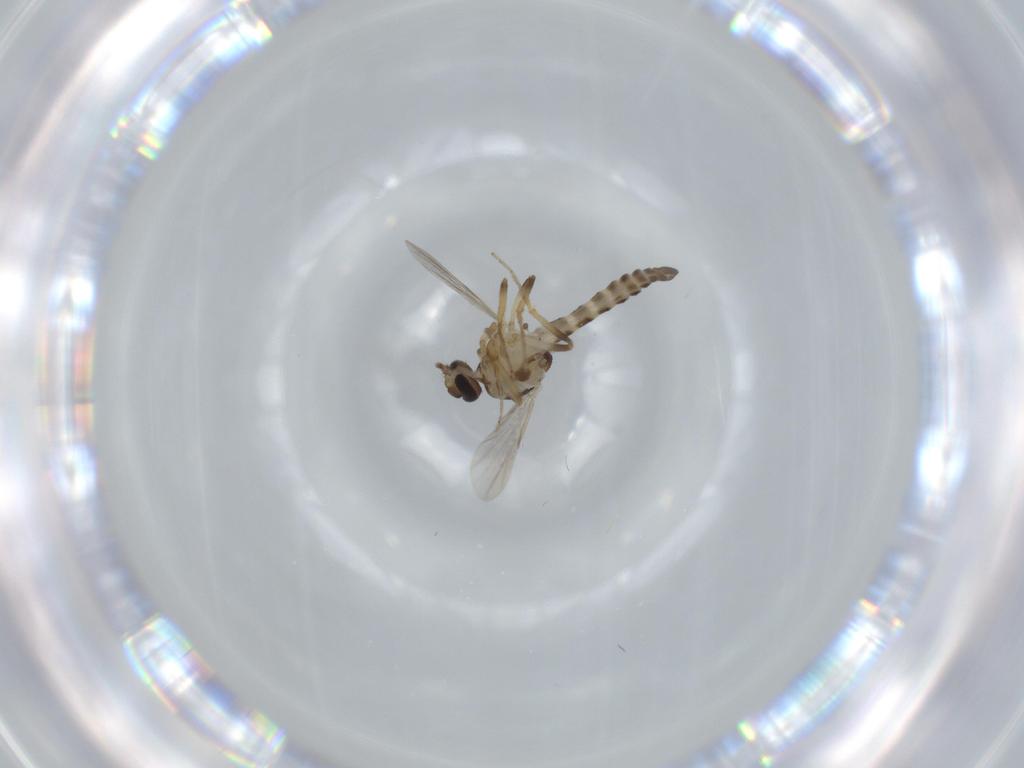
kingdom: Animalia
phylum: Arthropoda
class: Insecta
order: Diptera
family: Ceratopogonidae
